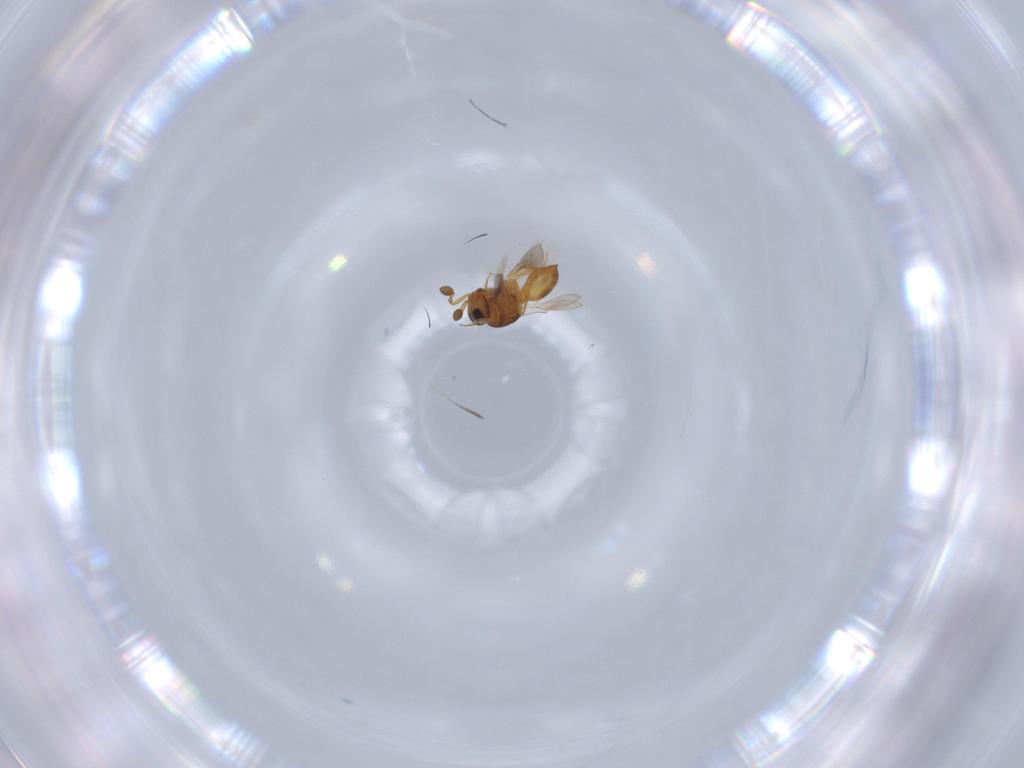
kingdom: Animalia
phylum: Arthropoda
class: Insecta
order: Hymenoptera
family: Scelionidae
